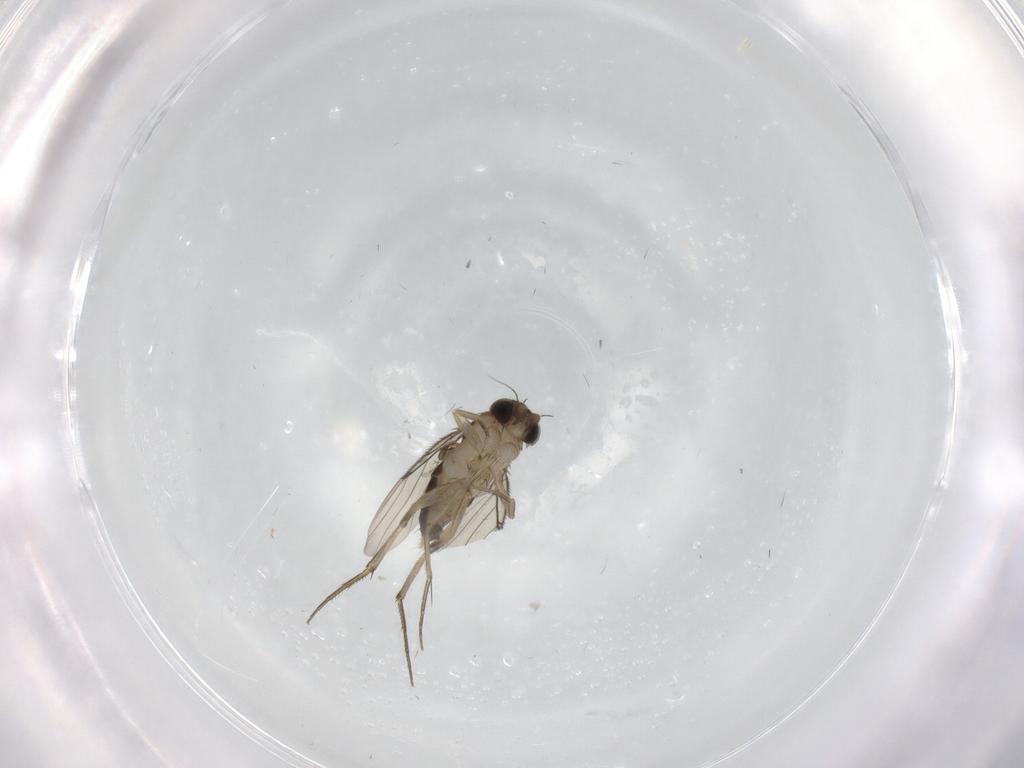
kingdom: Animalia
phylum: Arthropoda
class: Insecta
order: Diptera
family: Phoridae
